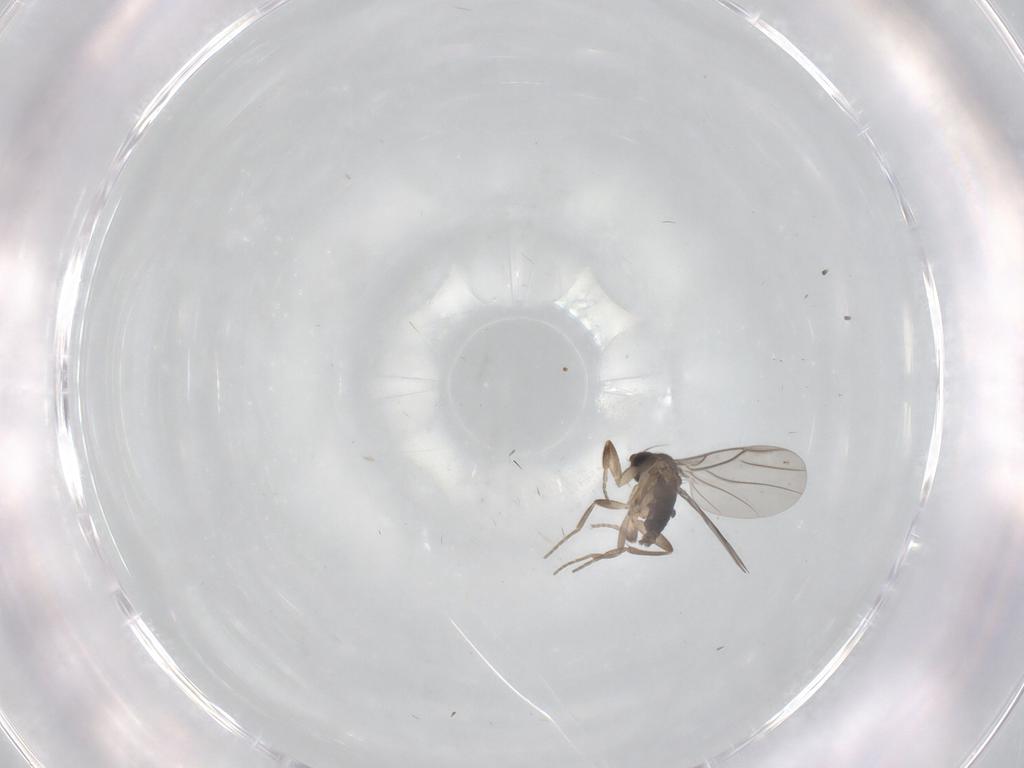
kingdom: Animalia
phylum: Arthropoda
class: Insecta
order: Diptera
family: Phoridae
